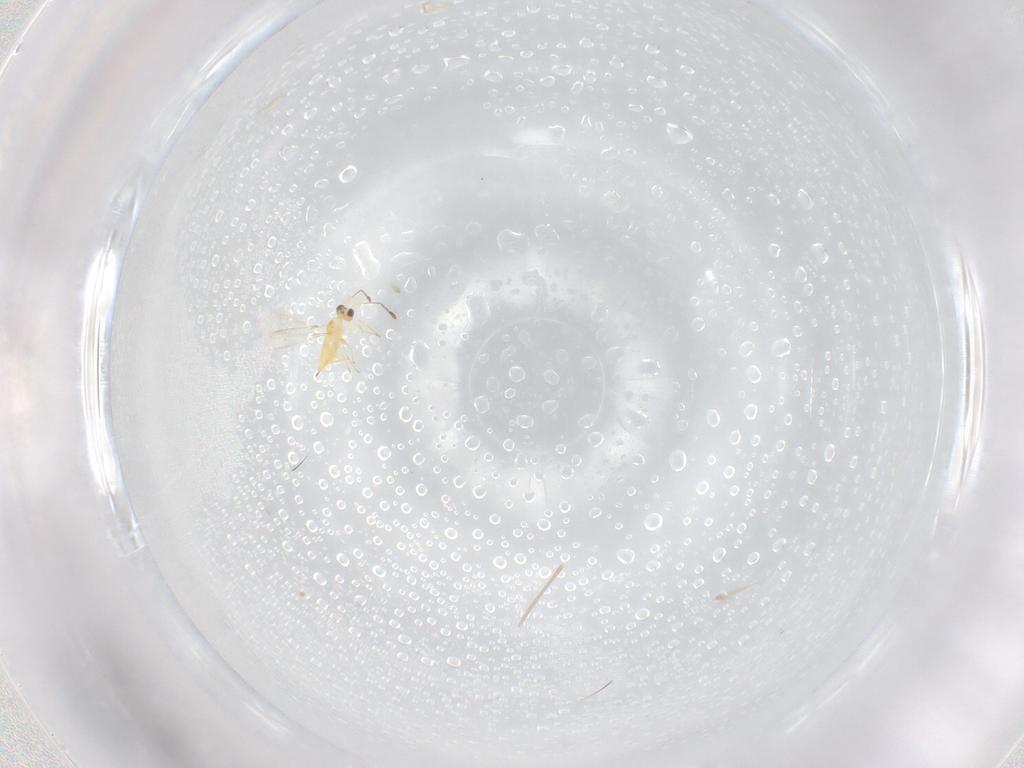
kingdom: Animalia
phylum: Arthropoda
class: Insecta
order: Hymenoptera
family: Mymaridae
